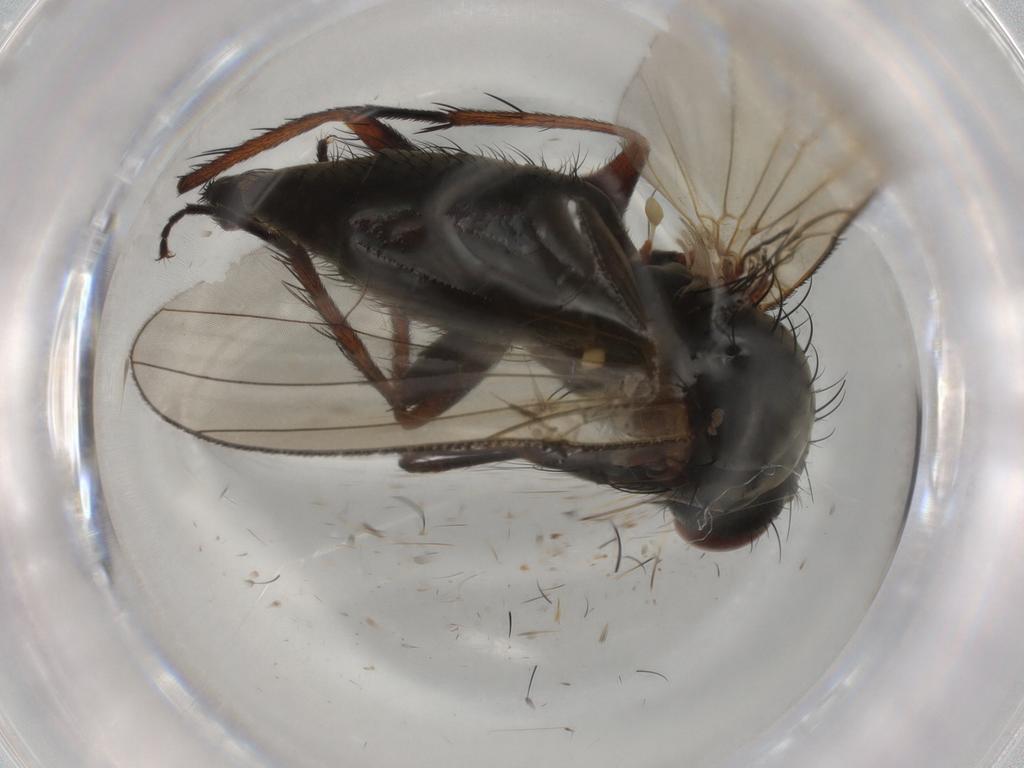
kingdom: Animalia
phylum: Arthropoda
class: Insecta
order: Diptera
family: Anthomyiidae
